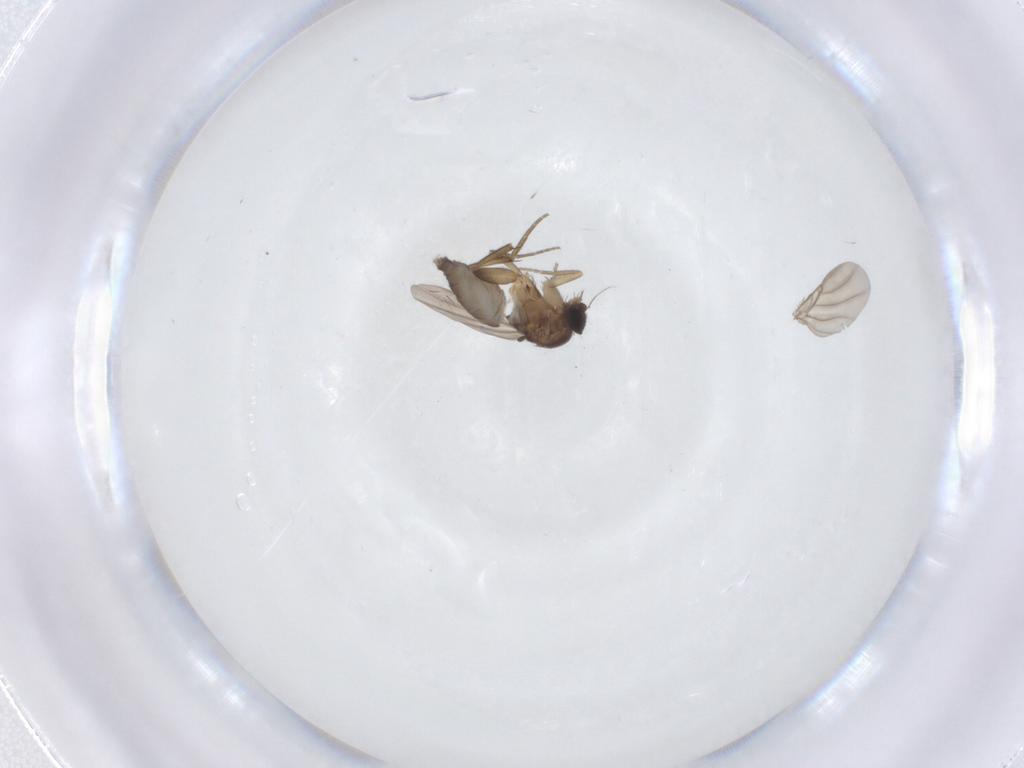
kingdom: Animalia
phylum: Arthropoda
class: Insecta
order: Diptera
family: Phoridae
